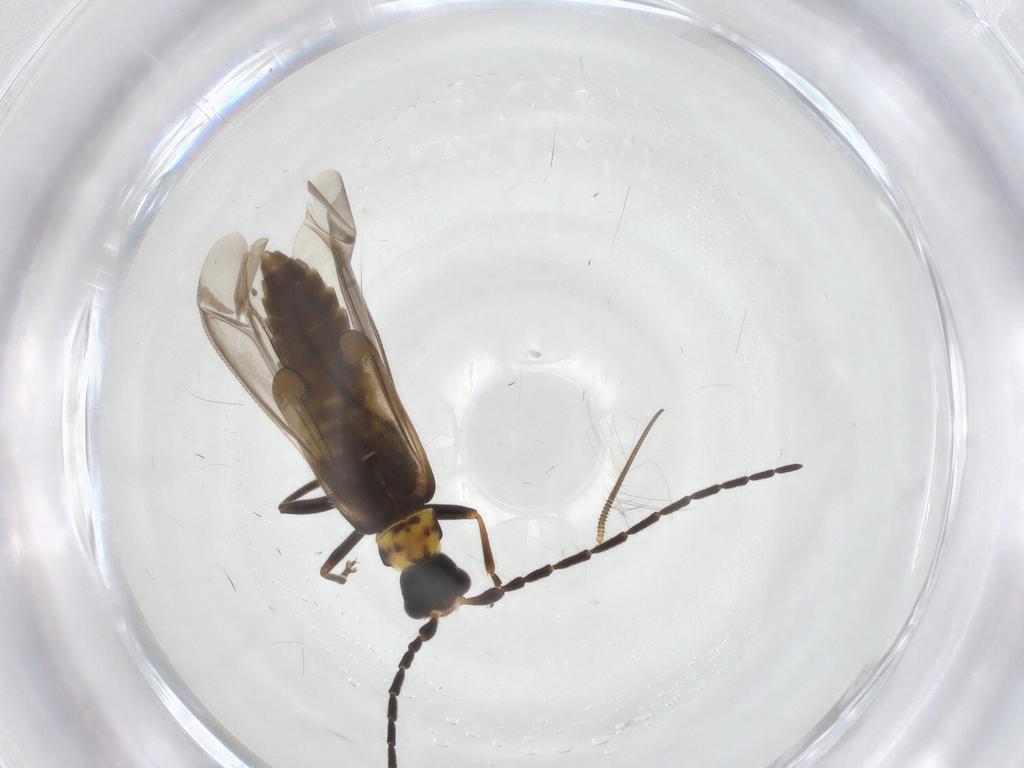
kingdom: Animalia
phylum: Arthropoda
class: Insecta
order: Coleoptera
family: Cantharidae
